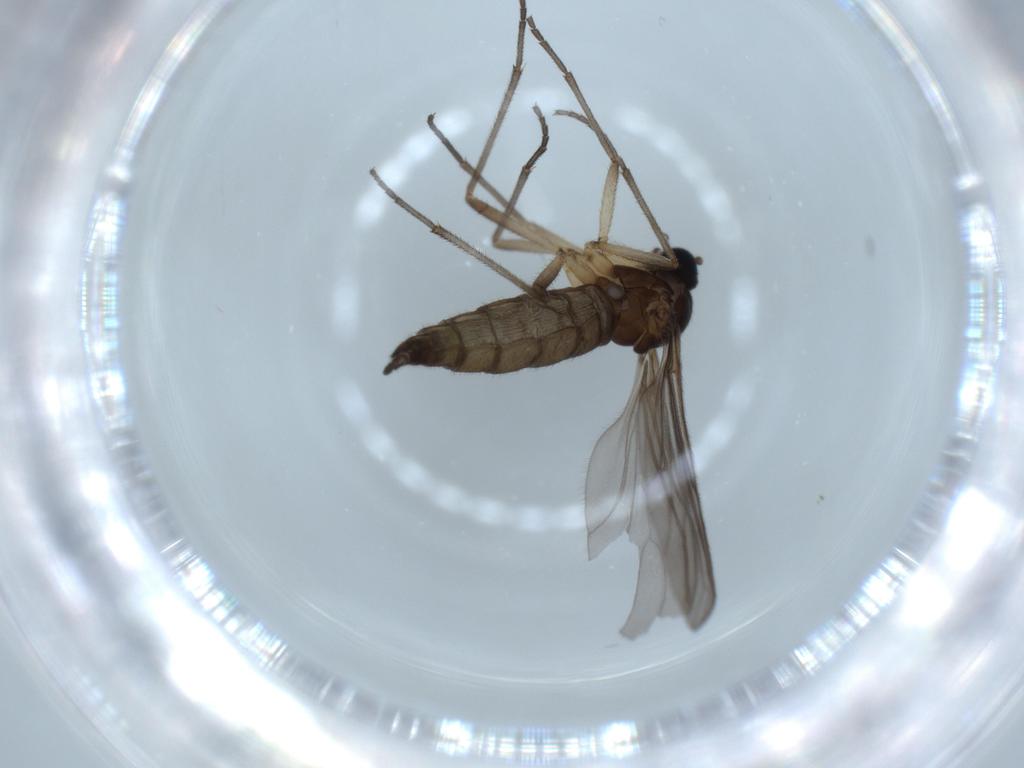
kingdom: Animalia
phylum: Arthropoda
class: Insecta
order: Diptera
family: Sciaridae
